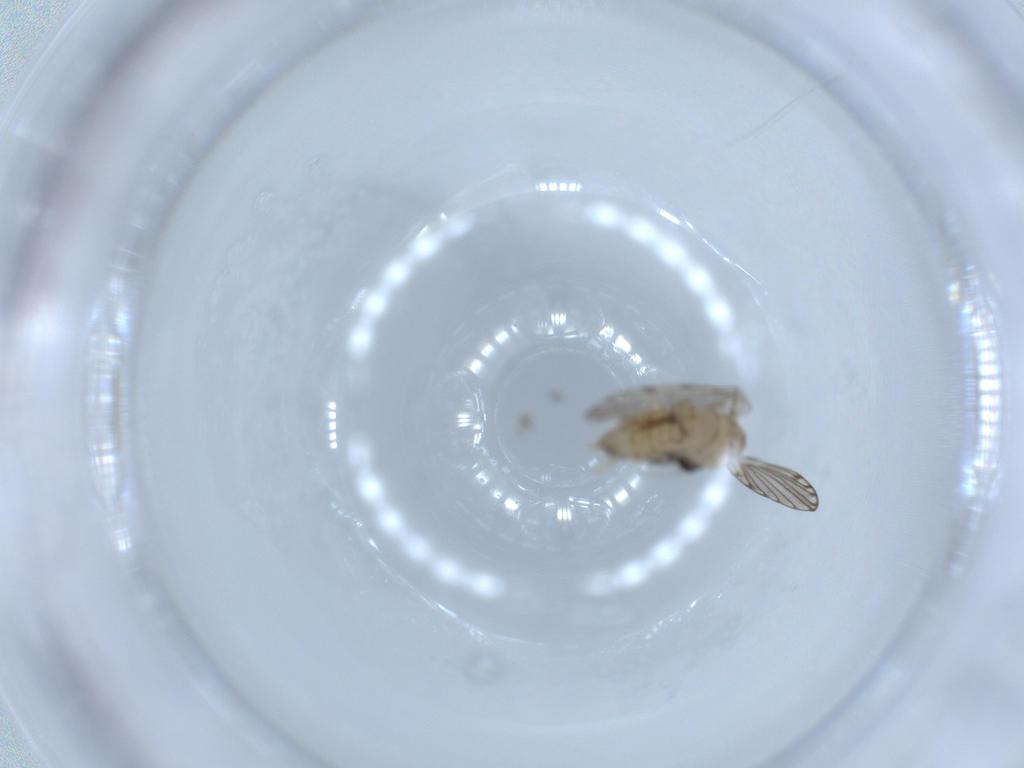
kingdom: Animalia
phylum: Arthropoda
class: Insecta
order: Diptera
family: Psychodidae
